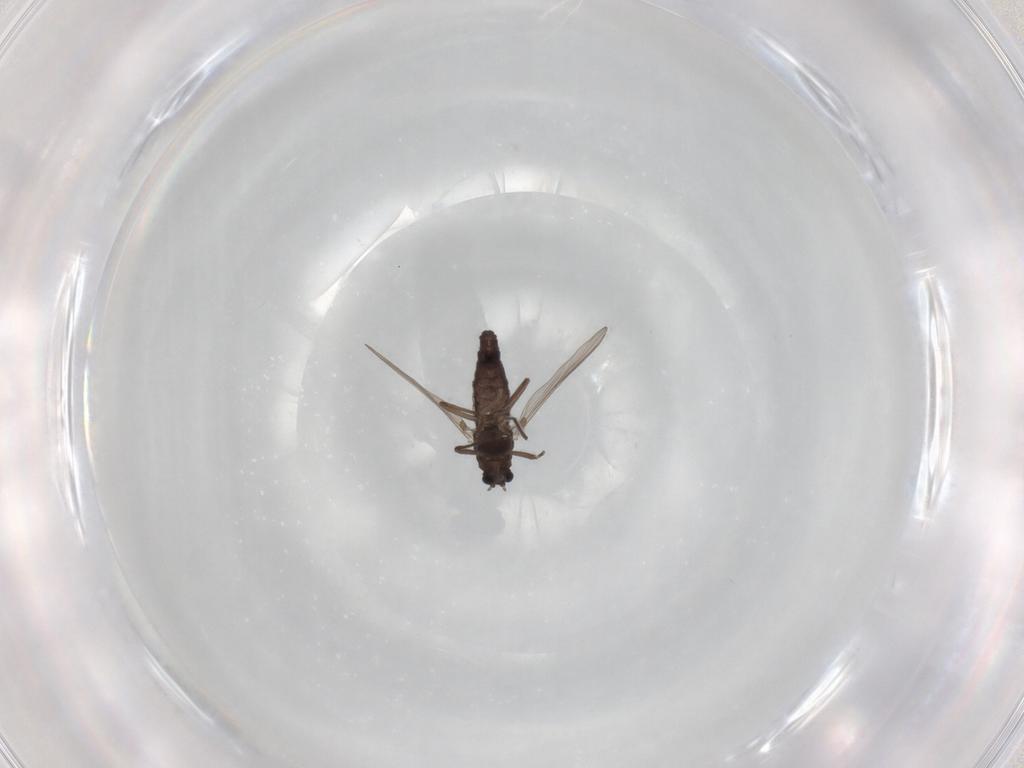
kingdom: Animalia
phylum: Arthropoda
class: Insecta
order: Diptera
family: Chironomidae
